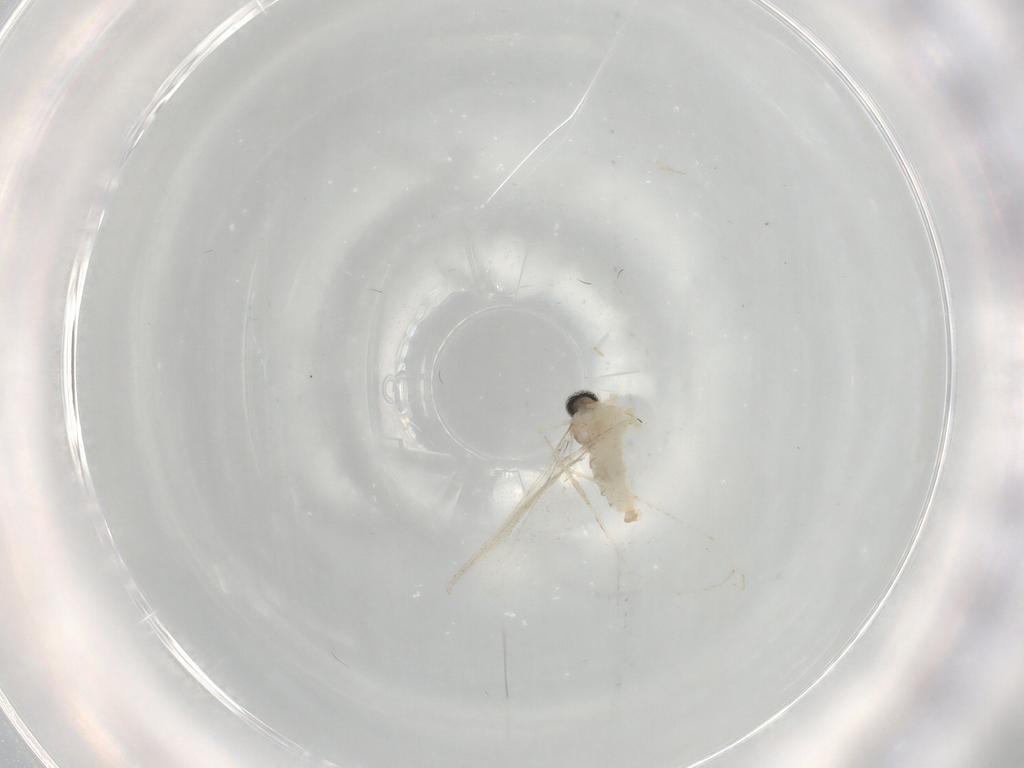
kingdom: Animalia
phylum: Arthropoda
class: Insecta
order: Diptera
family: Cecidomyiidae
